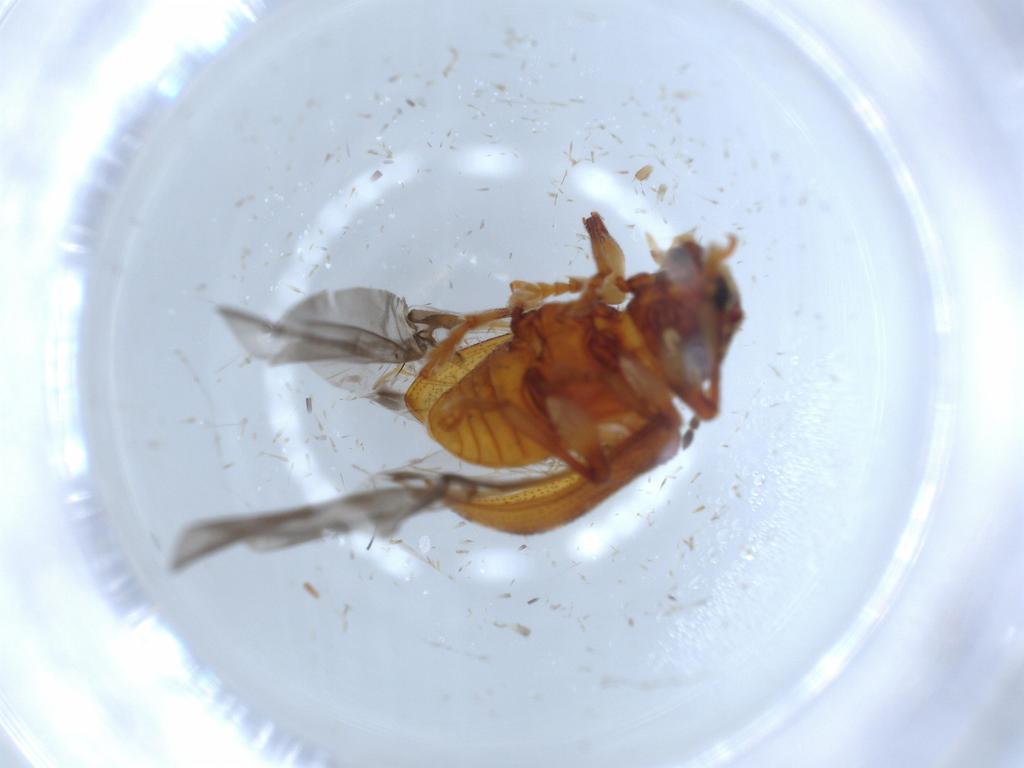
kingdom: Animalia
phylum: Arthropoda
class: Insecta
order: Coleoptera
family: Chrysomelidae
